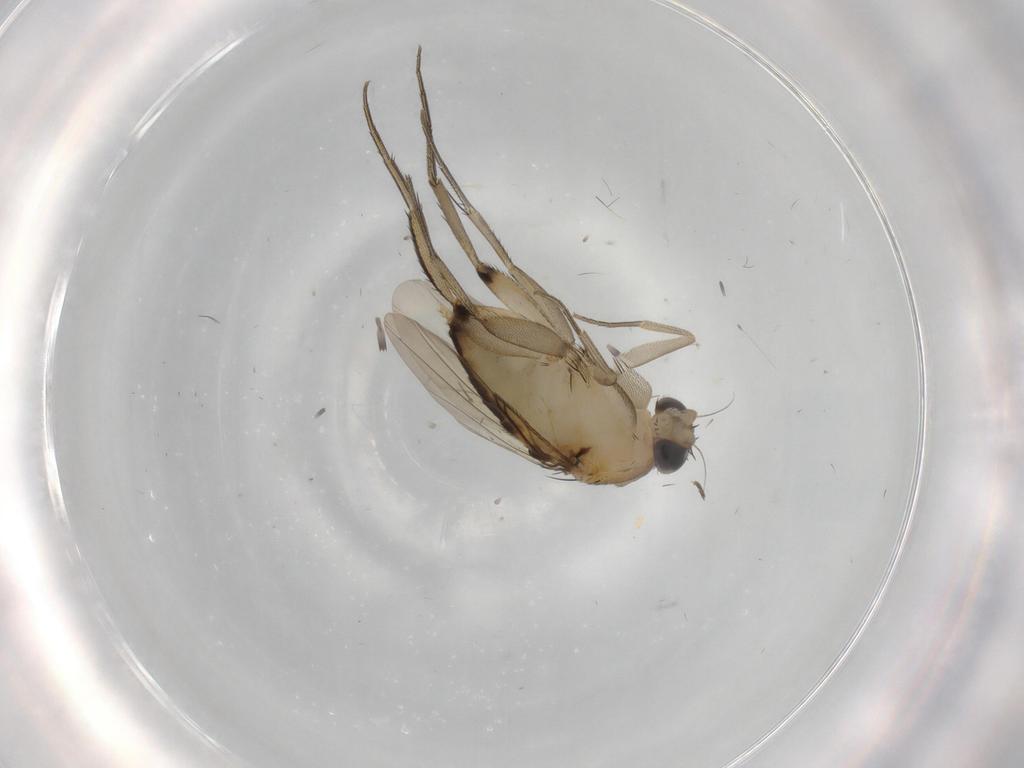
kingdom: Animalia
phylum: Arthropoda
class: Insecta
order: Diptera
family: Phoridae
